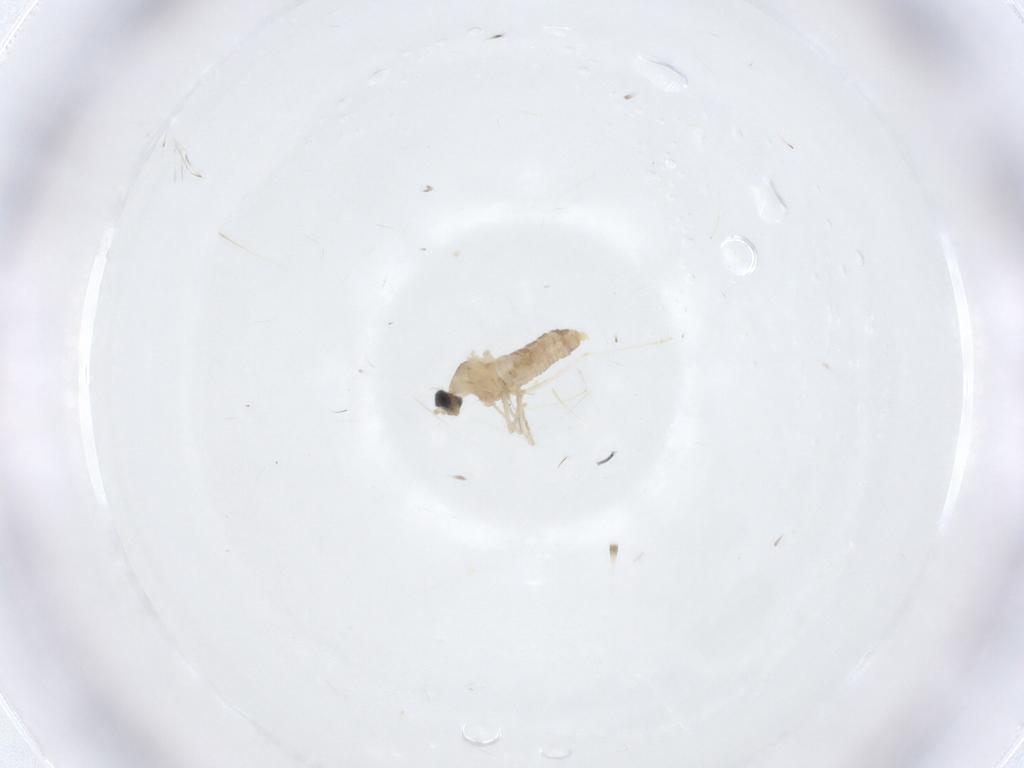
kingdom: Animalia
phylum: Arthropoda
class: Insecta
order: Diptera
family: Cecidomyiidae
